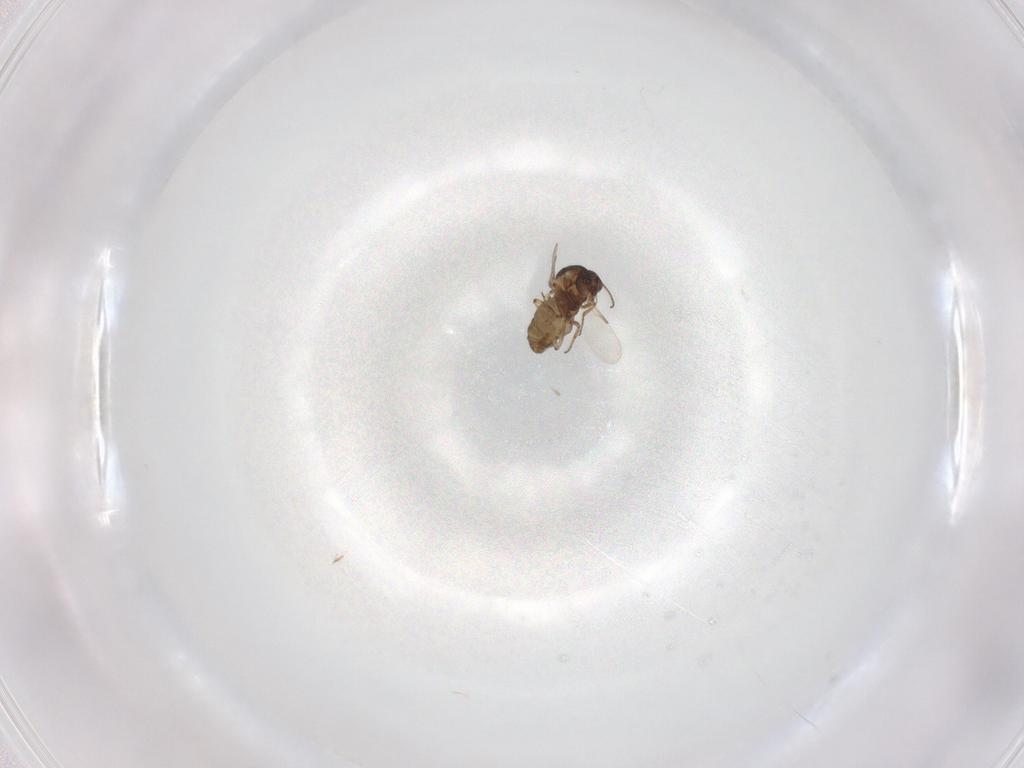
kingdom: Animalia
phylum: Arthropoda
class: Insecta
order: Diptera
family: Ceratopogonidae
